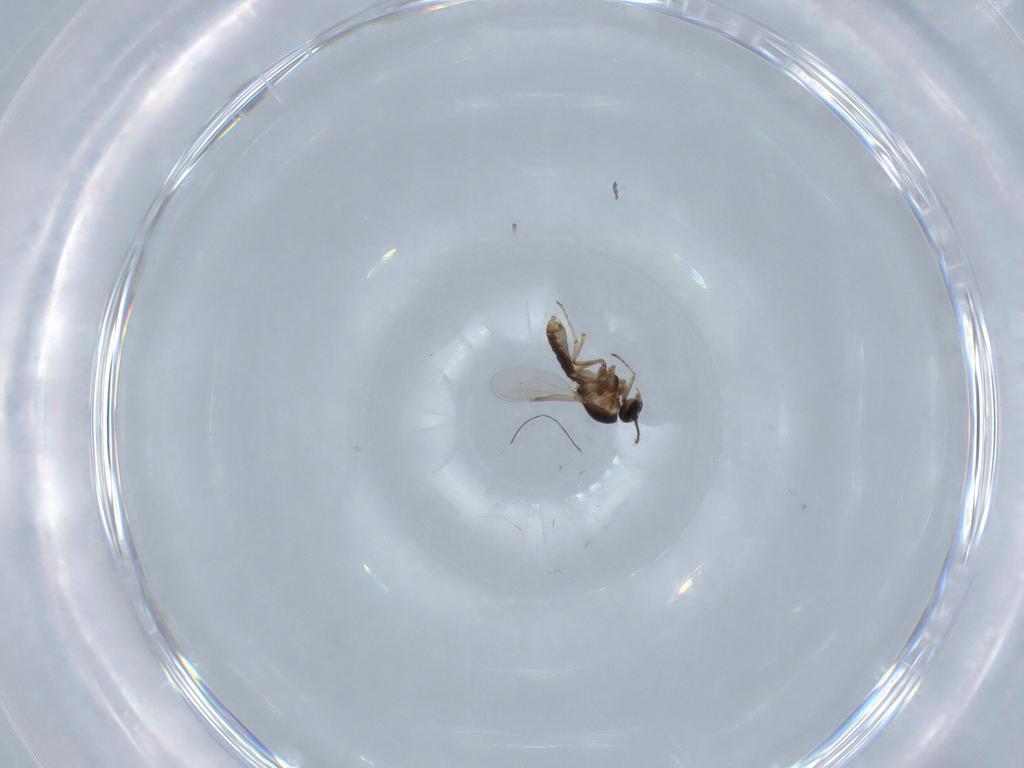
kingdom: Animalia
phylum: Arthropoda
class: Insecta
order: Diptera
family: Ceratopogonidae
